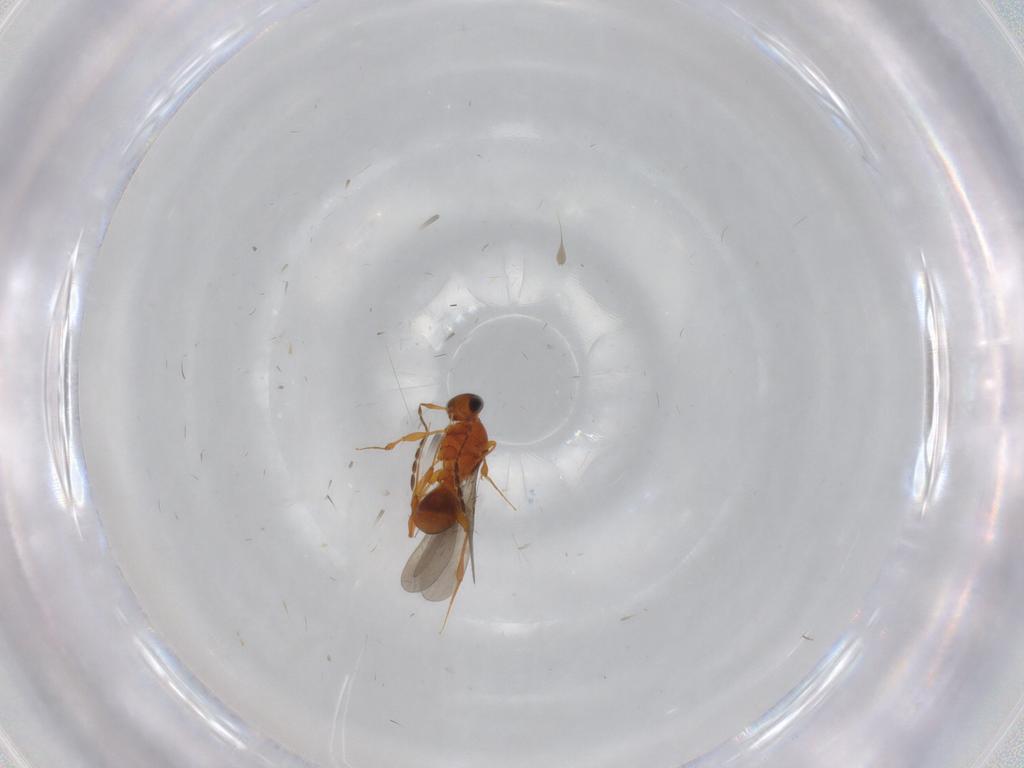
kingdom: Animalia
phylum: Arthropoda
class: Insecta
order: Hymenoptera
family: Platygastridae
